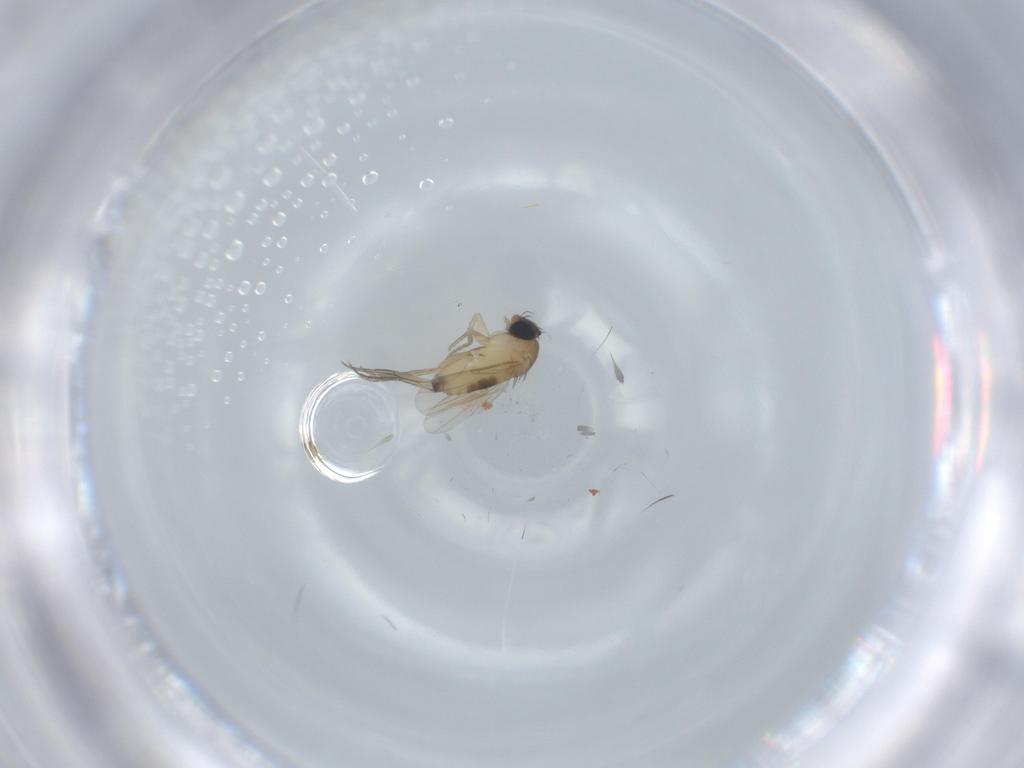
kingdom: Animalia
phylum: Arthropoda
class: Insecta
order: Diptera
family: Phoridae
